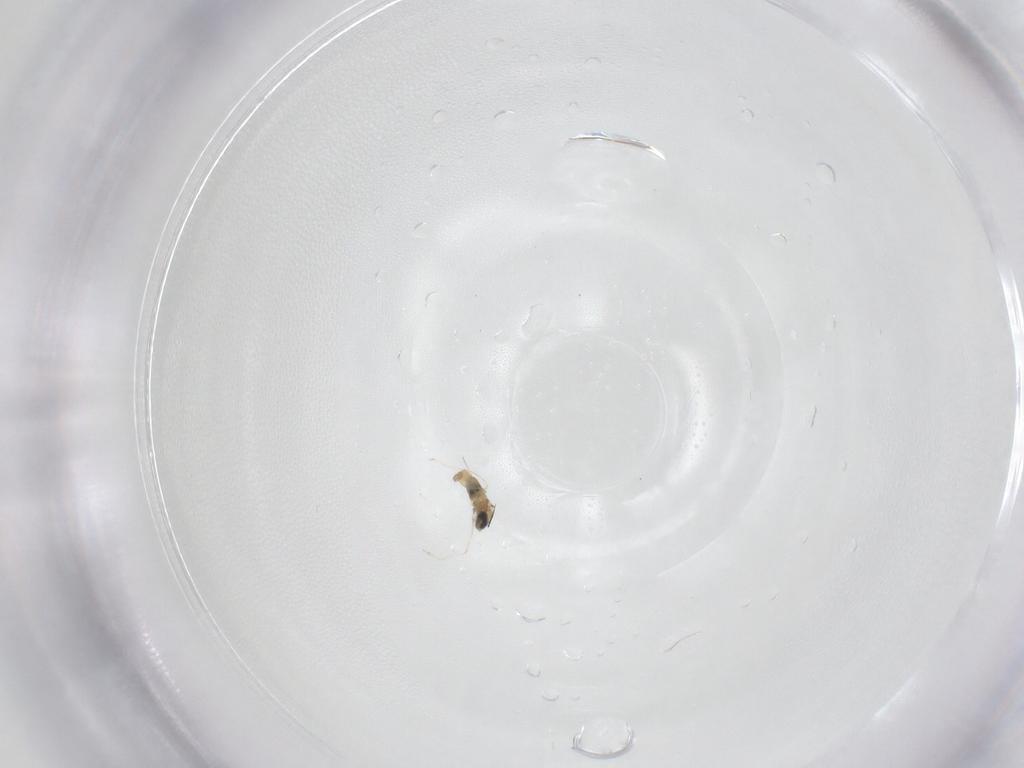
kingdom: Animalia
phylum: Arthropoda
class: Insecta
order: Diptera
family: Cecidomyiidae
